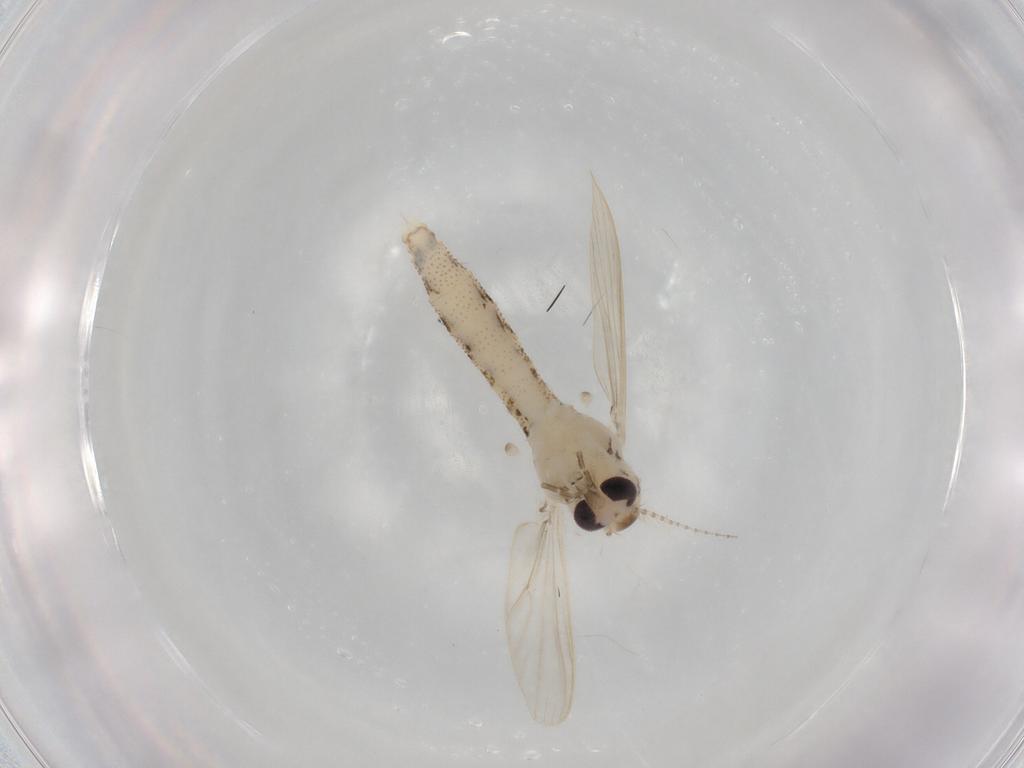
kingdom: Animalia
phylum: Arthropoda
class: Insecta
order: Diptera
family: Chaoboridae
